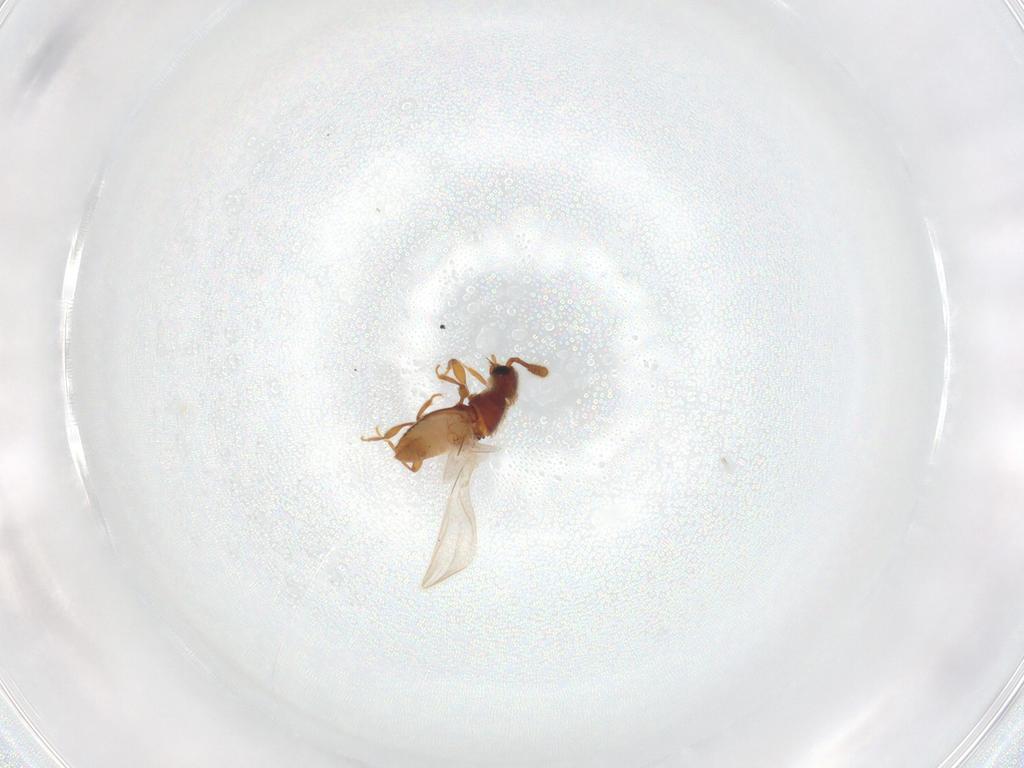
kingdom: Animalia
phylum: Arthropoda
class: Insecta
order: Coleoptera
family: Staphylinidae
